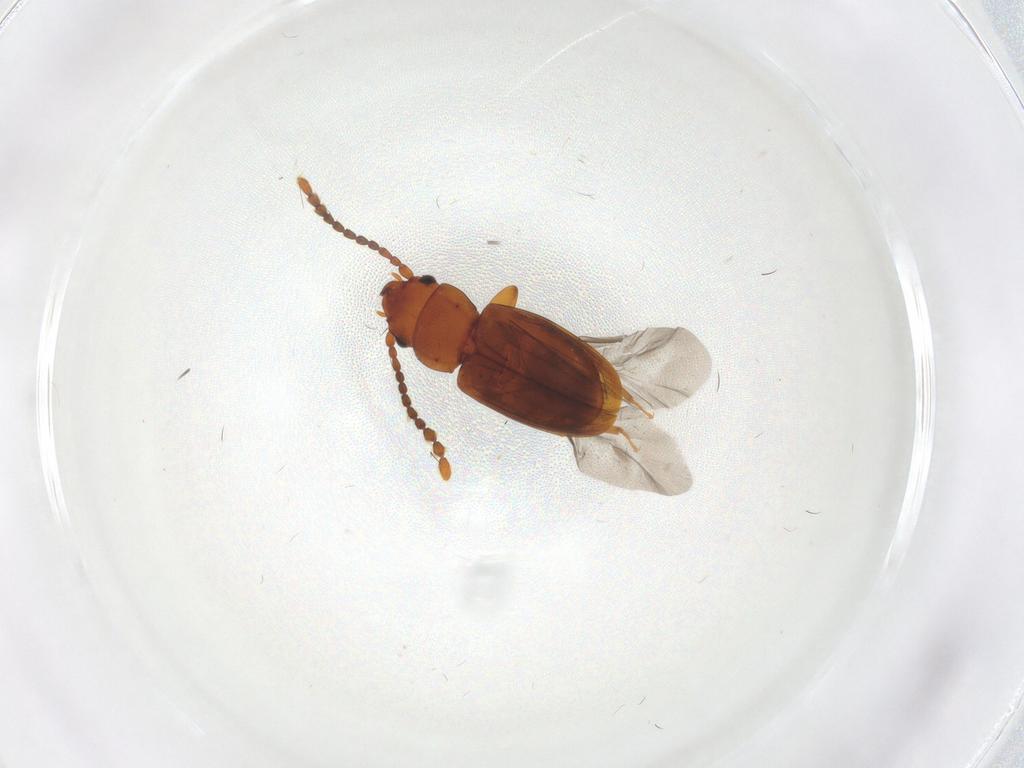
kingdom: Animalia
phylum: Arthropoda
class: Insecta
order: Coleoptera
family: Laemophloeidae
